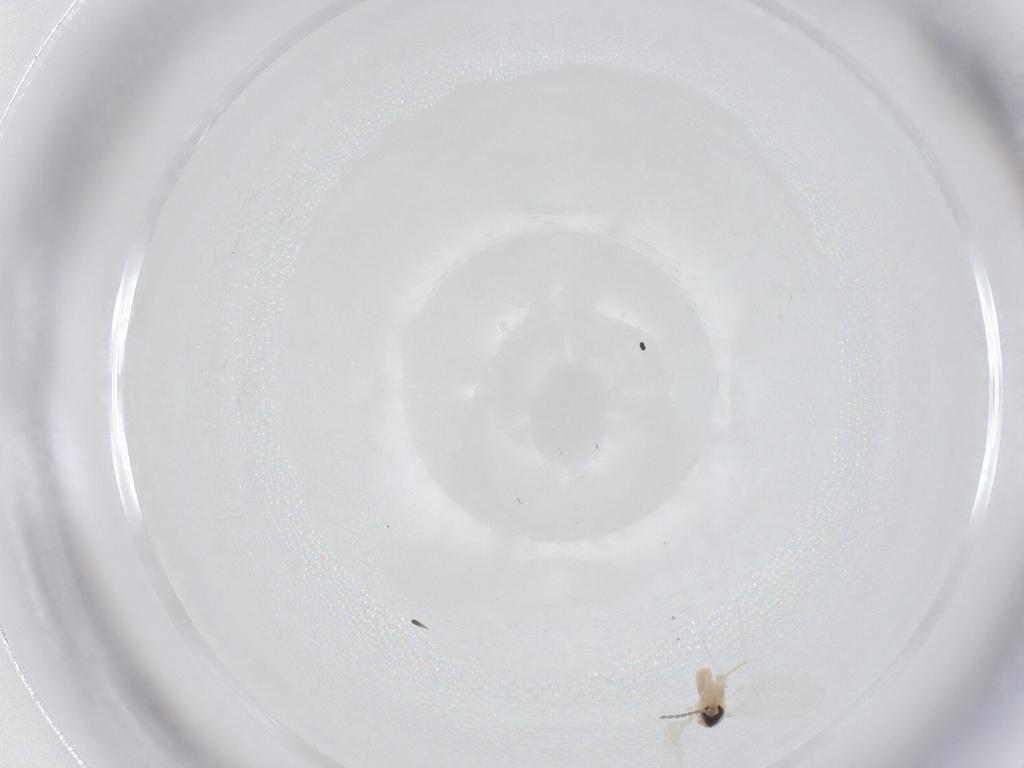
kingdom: Animalia
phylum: Arthropoda
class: Insecta
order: Diptera
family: Cecidomyiidae
